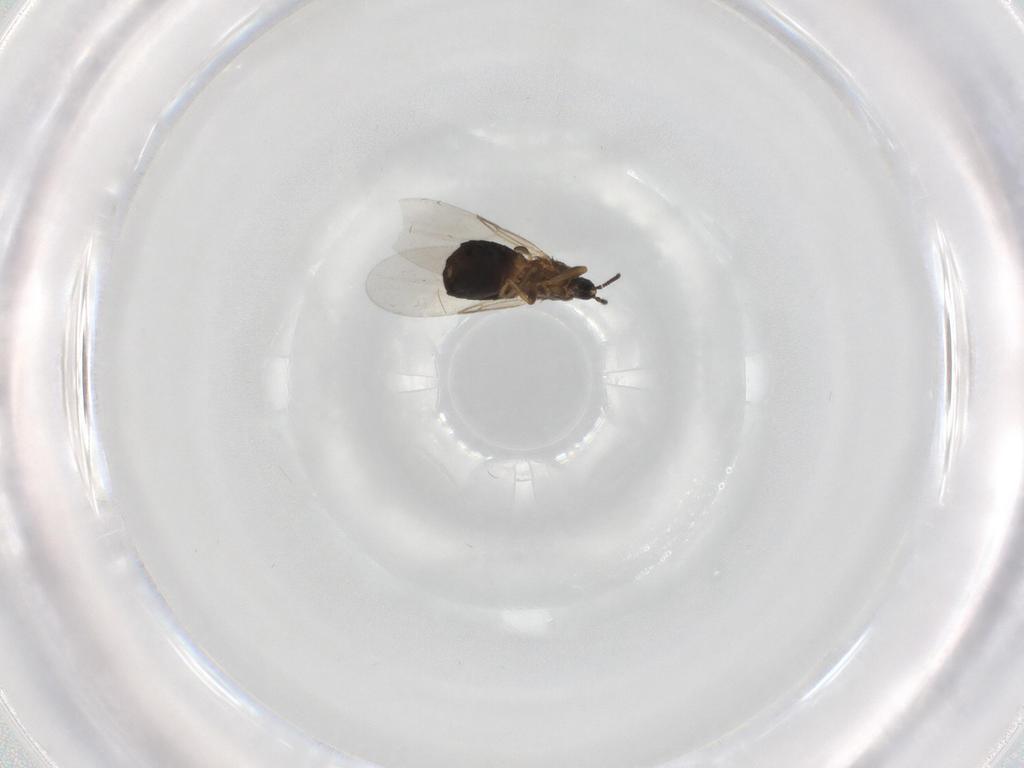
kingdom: Animalia
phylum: Arthropoda
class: Insecta
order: Diptera
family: Scatopsidae
